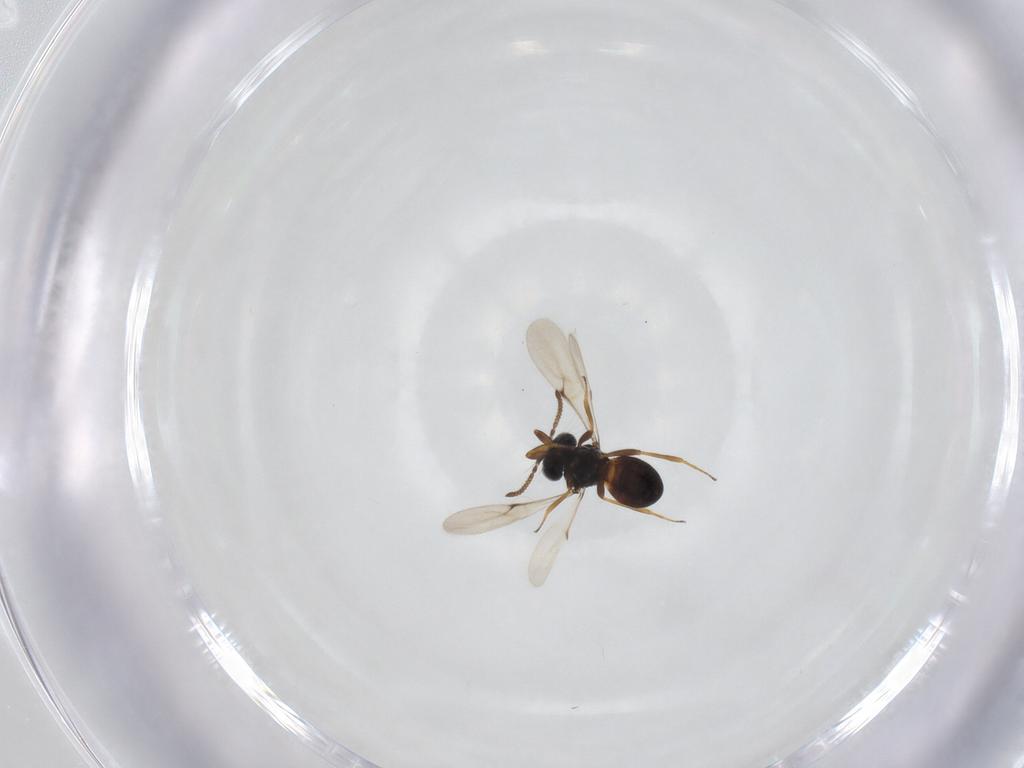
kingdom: Animalia
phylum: Arthropoda
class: Insecta
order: Hymenoptera
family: Scelionidae
